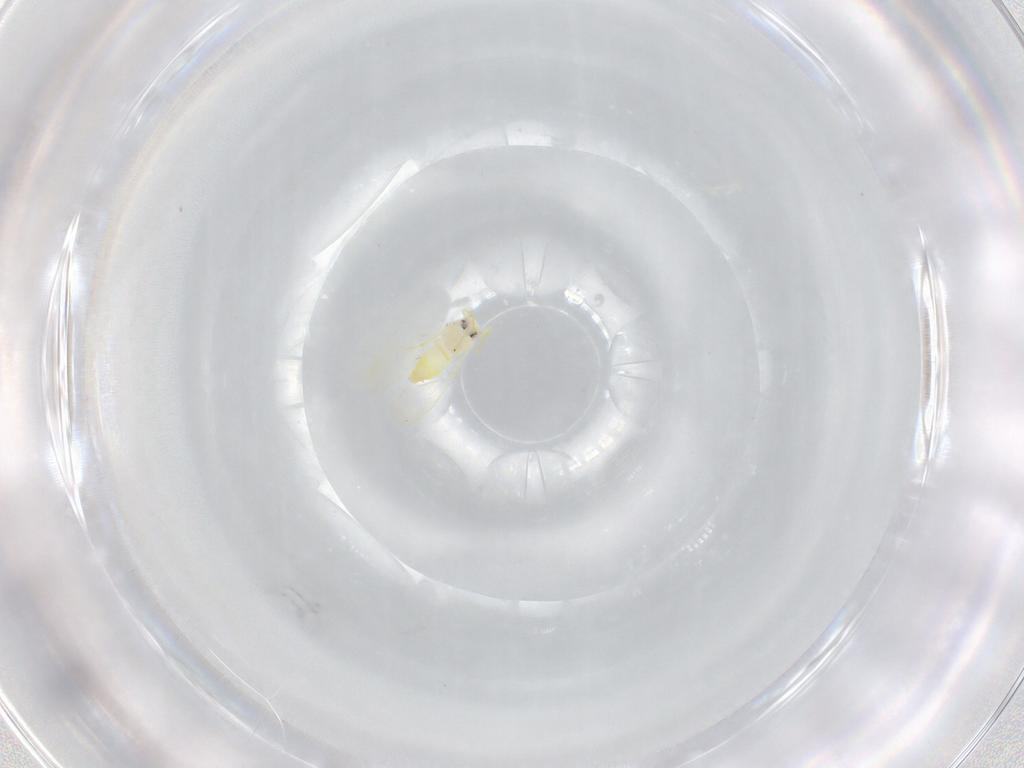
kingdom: Animalia
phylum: Arthropoda
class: Insecta
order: Hemiptera
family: Aleyrodidae
